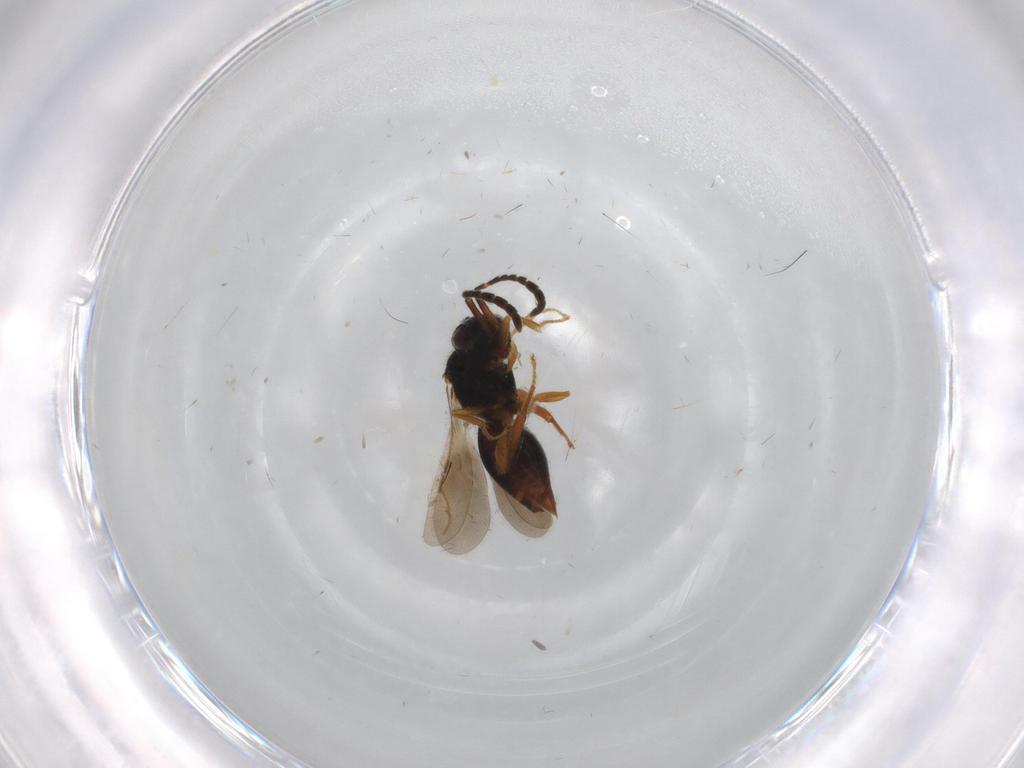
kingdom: Animalia
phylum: Arthropoda
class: Insecta
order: Hymenoptera
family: Ceraphronidae
